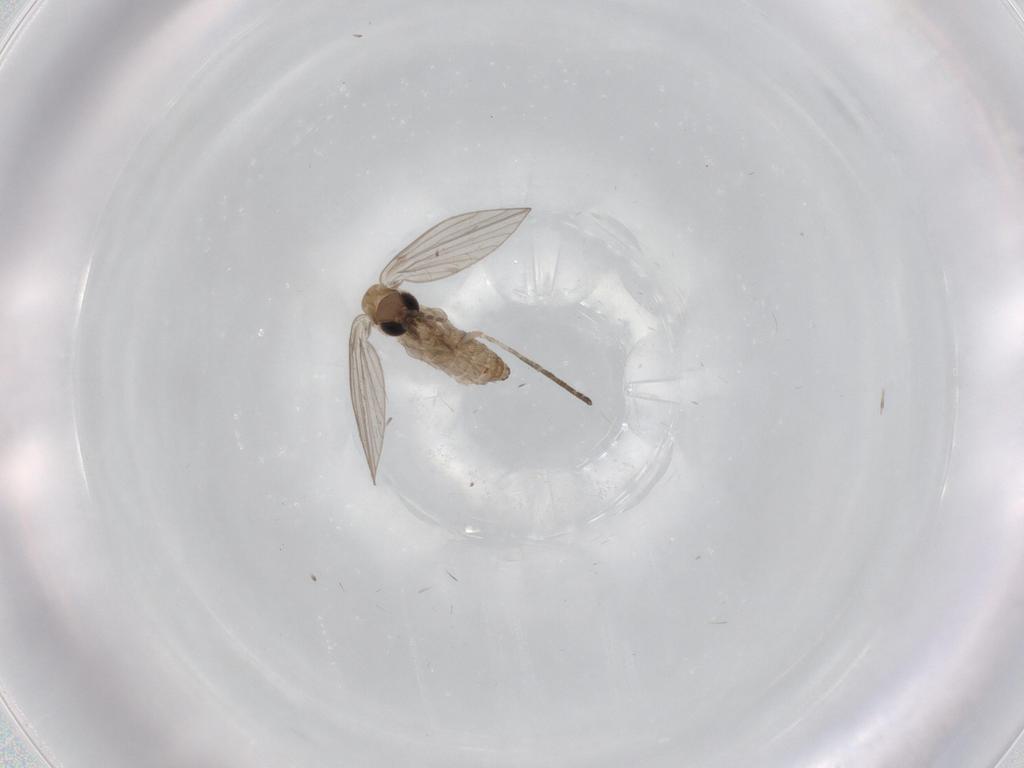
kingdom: Animalia
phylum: Arthropoda
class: Insecta
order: Diptera
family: Psychodidae
